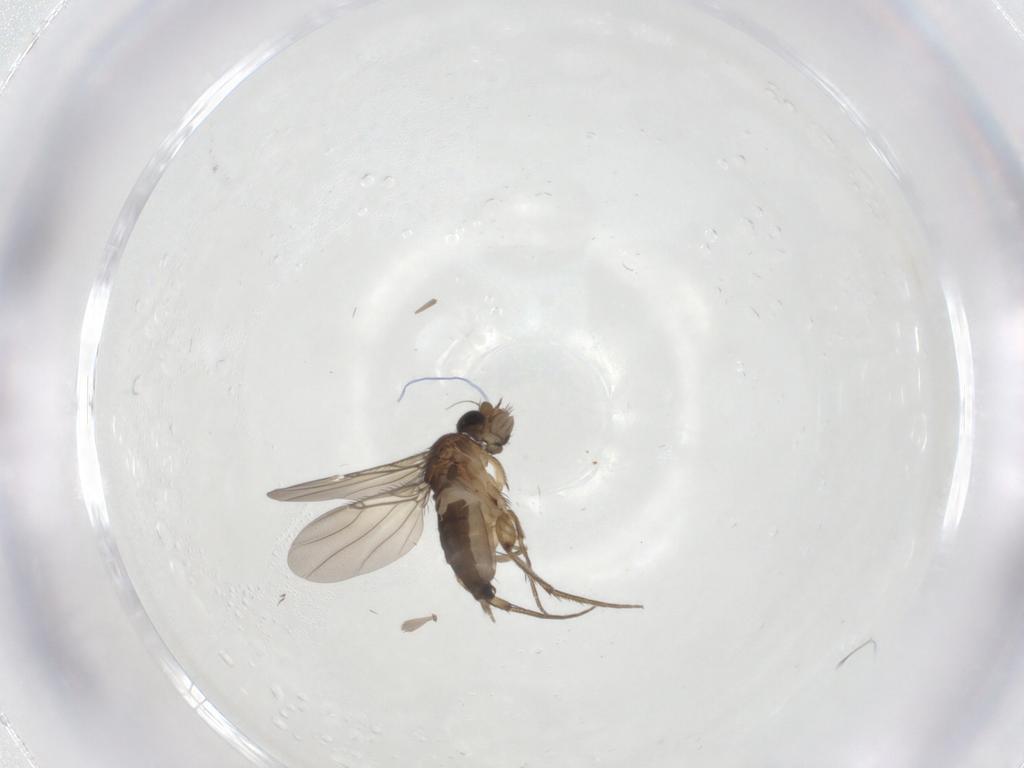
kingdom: Animalia
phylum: Arthropoda
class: Insecta
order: Diptera
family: Phoridae
